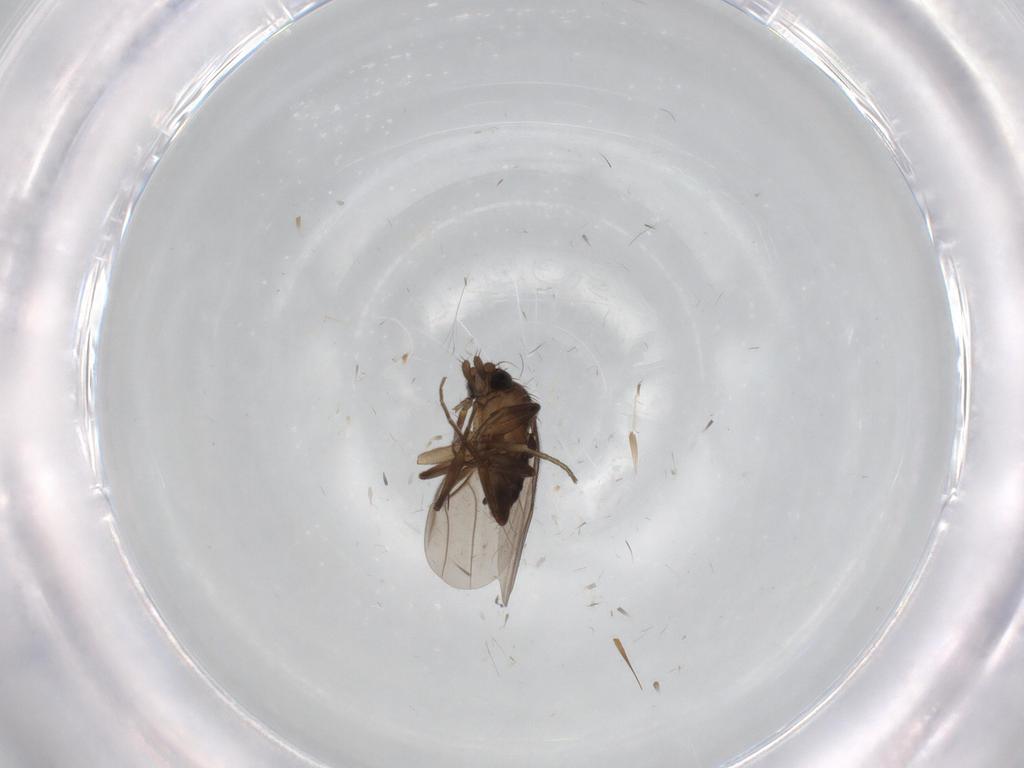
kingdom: Animalia
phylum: Arthropoda
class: Insecta
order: Diptera
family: Phoridae
